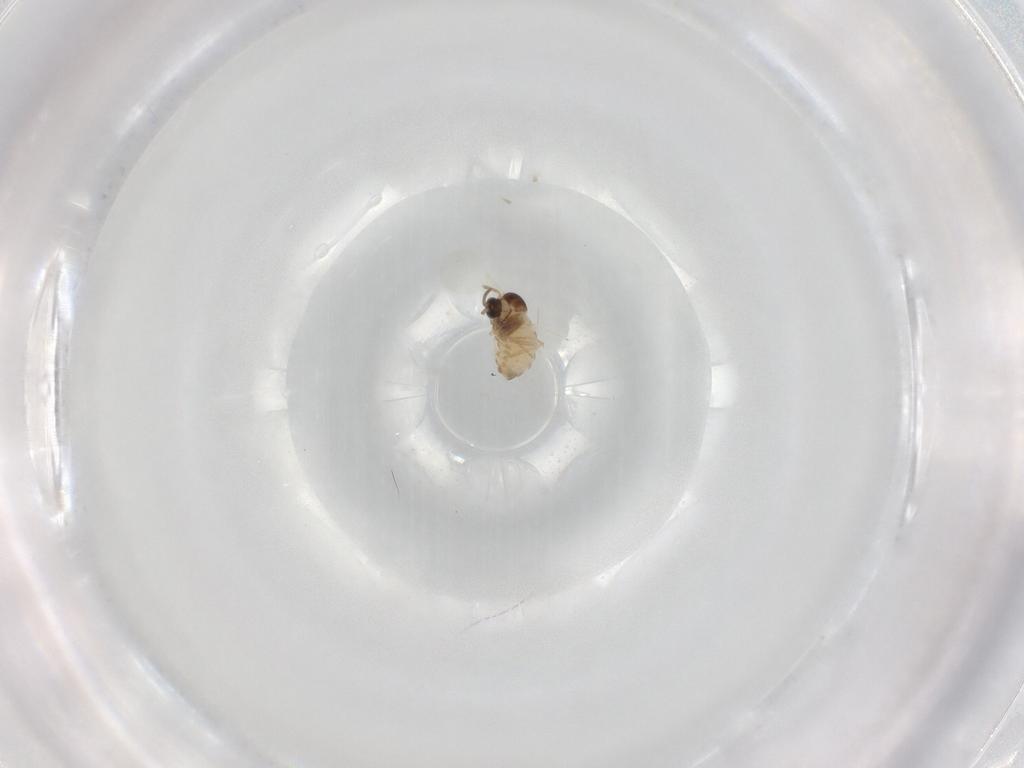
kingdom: Animalia
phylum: Arthropoda
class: Insecta
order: Diptera
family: Cecidomyiidae
